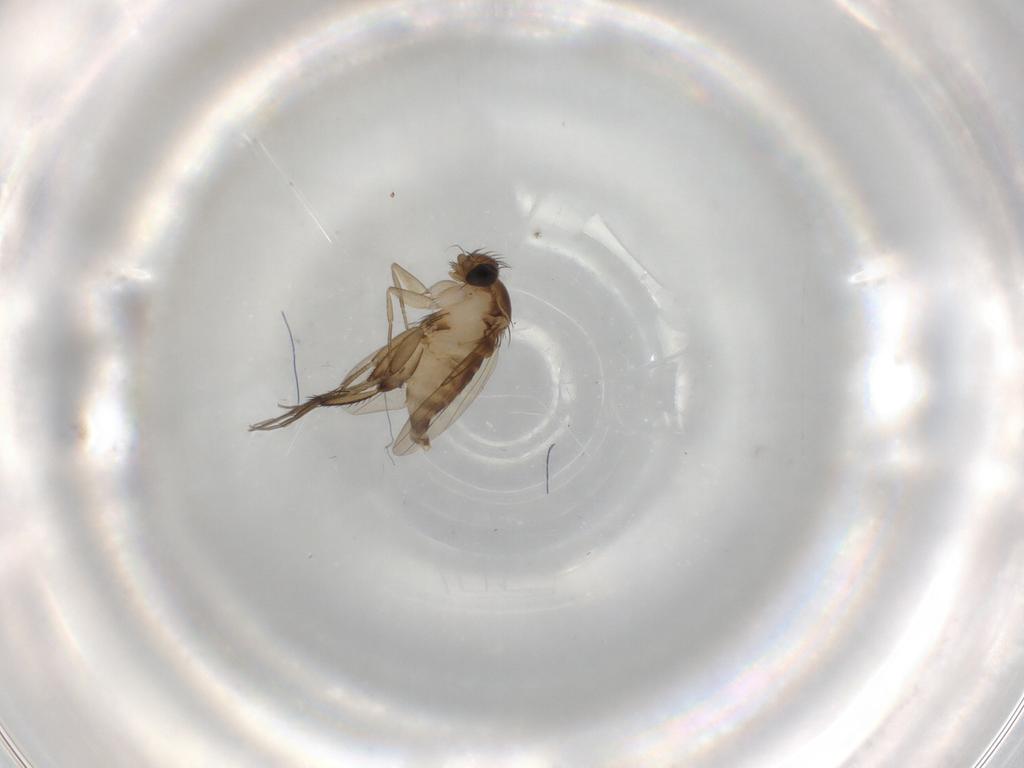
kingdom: Animalia
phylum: Arthropoda
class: Insecta
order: Diptera
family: Phoridae
